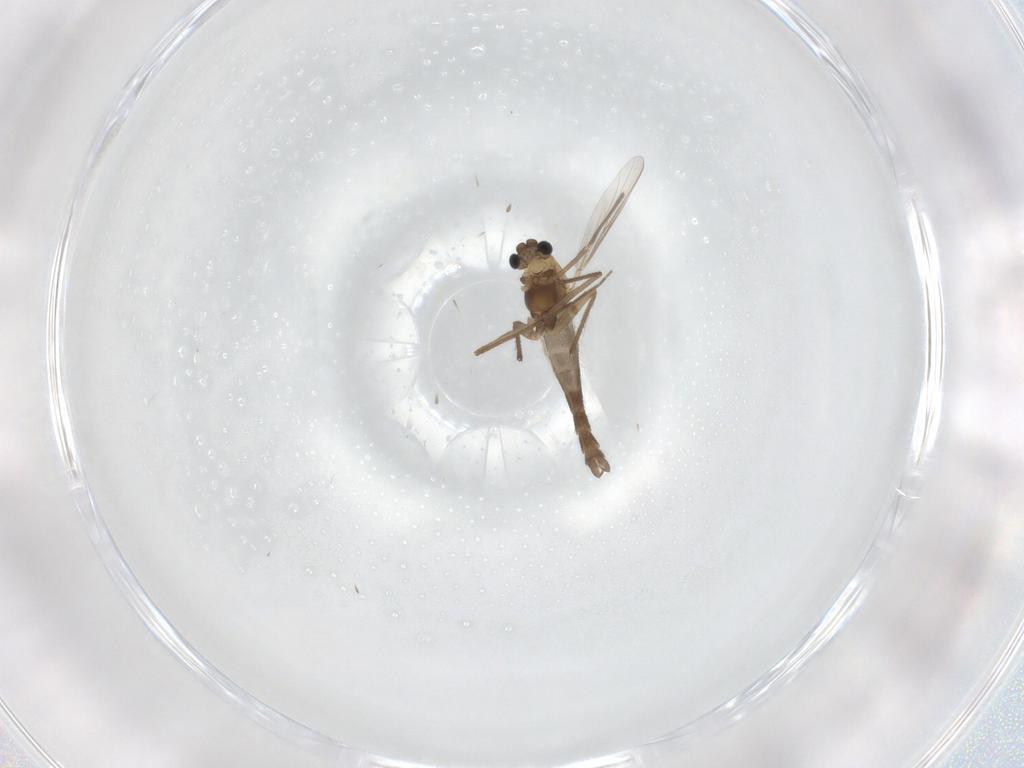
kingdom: Animalia
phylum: Arthropoda
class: Insecta
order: Diptera
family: Chironomidae
